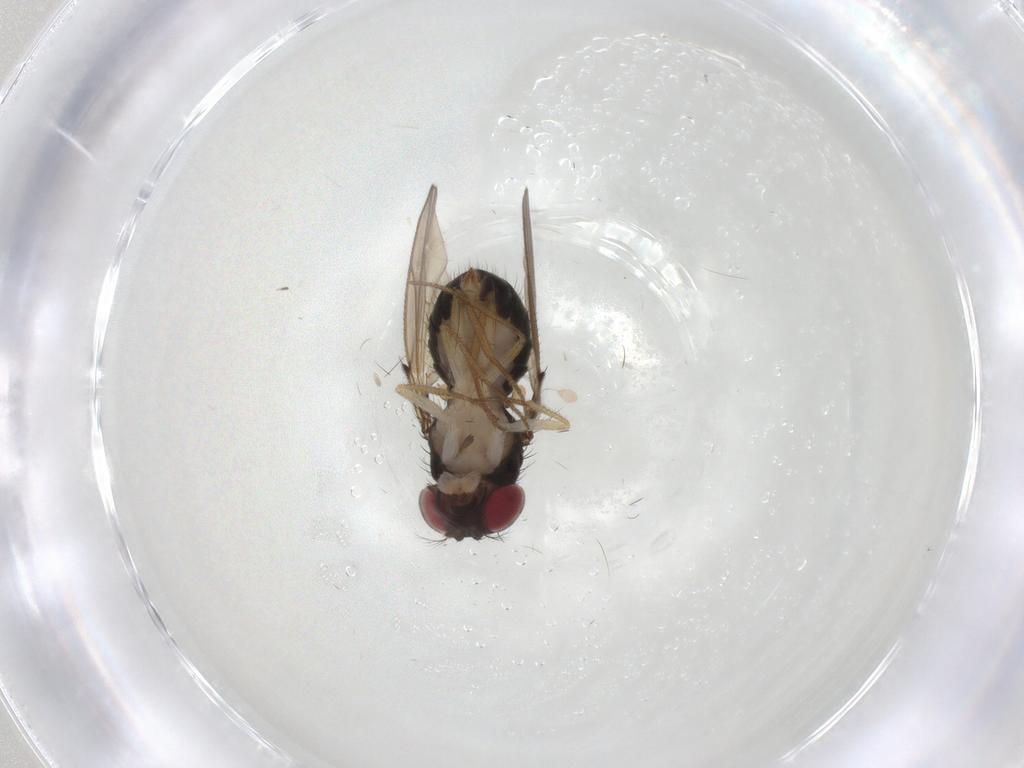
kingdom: Animalia
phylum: Arthropoda
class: Insecta
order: Diptera
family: Drosophilidae
